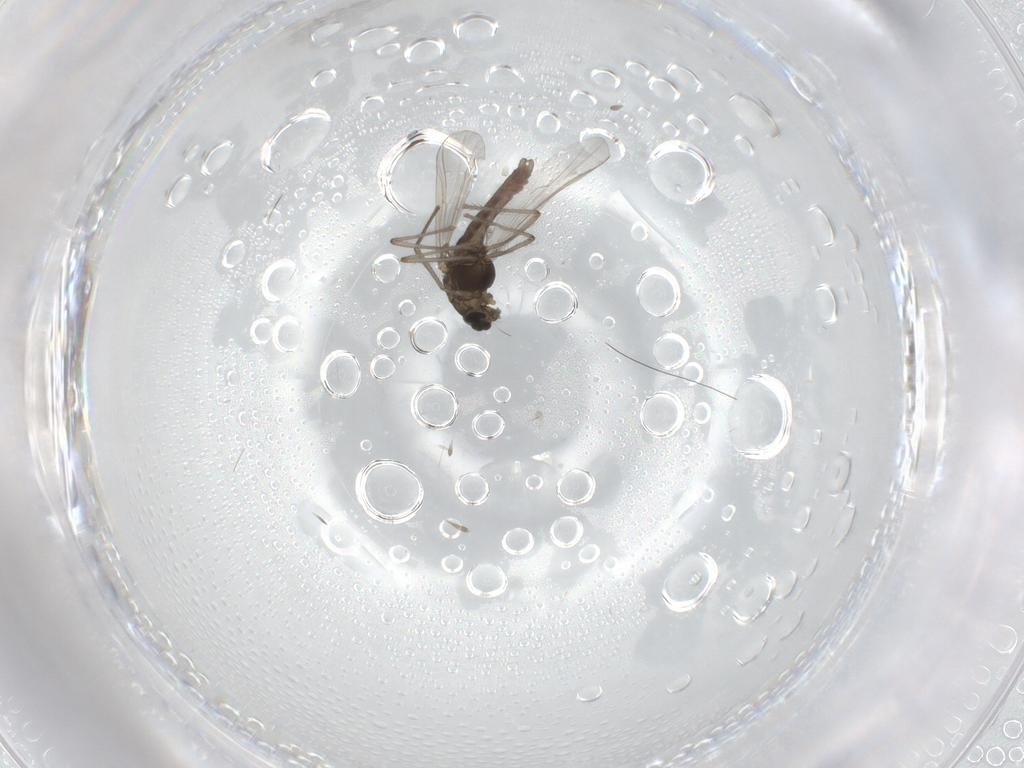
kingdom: Animalia
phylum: Arthropoda
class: Insecta
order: Diptera
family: Chironomidae
